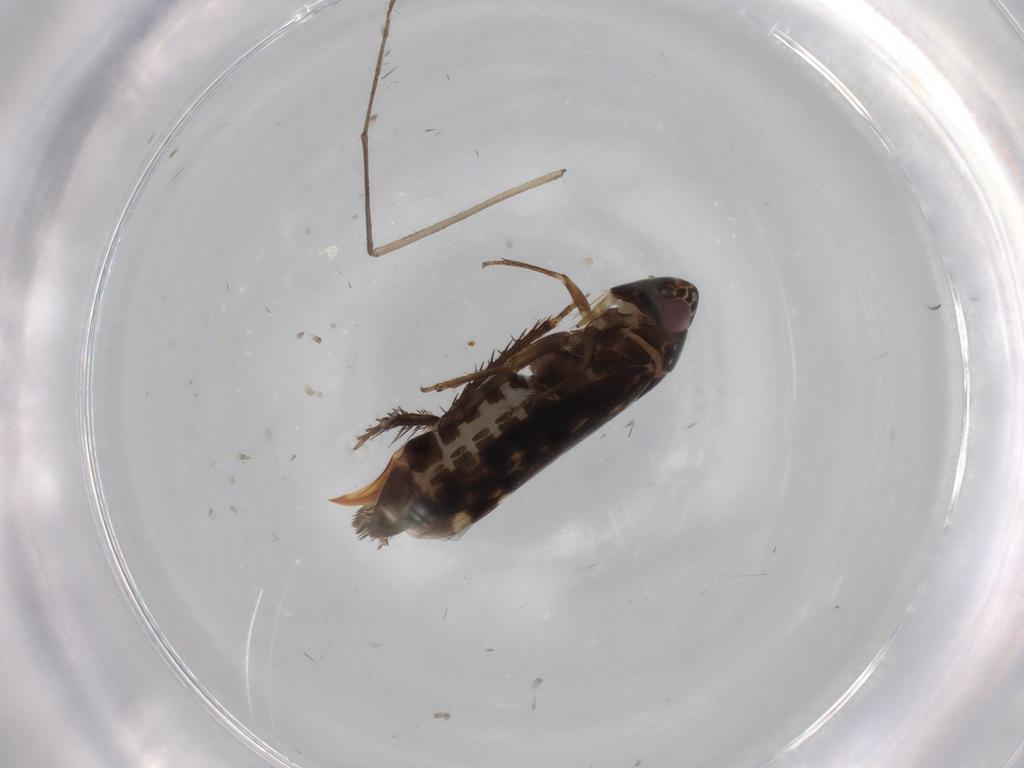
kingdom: Animalia
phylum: Arthropoda
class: Insecta
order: Hemiptera
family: Cicadellidae
